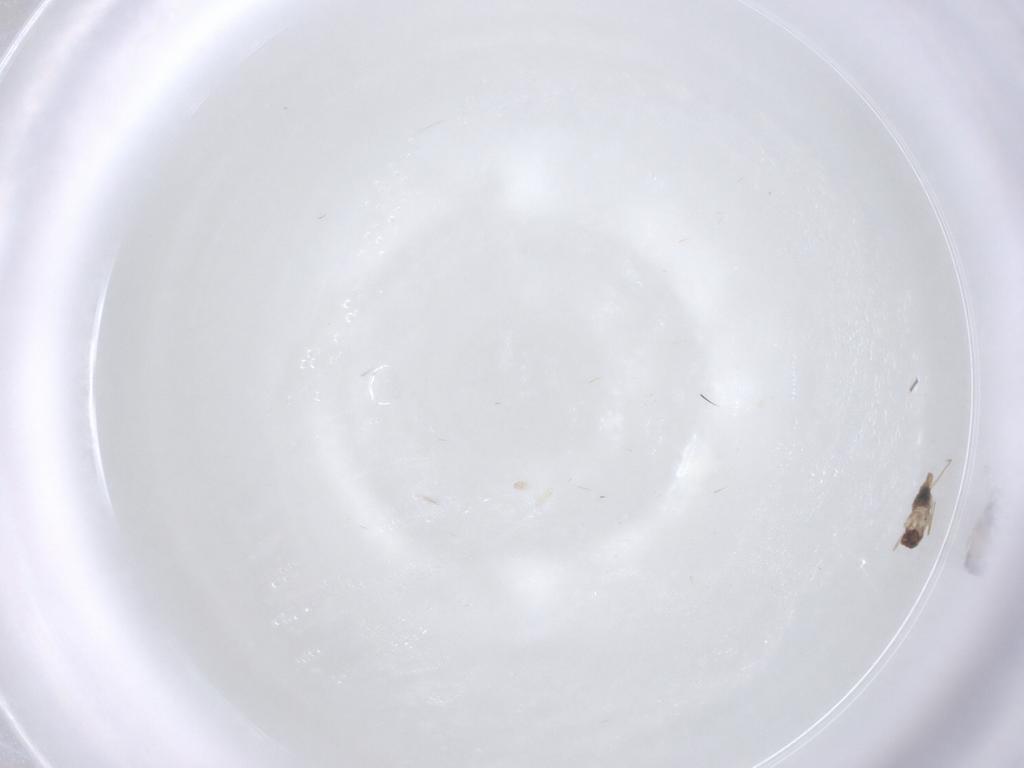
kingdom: Animalia
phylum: Arthropoda
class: Insecta
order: Diptera
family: Cecidomyiidae
